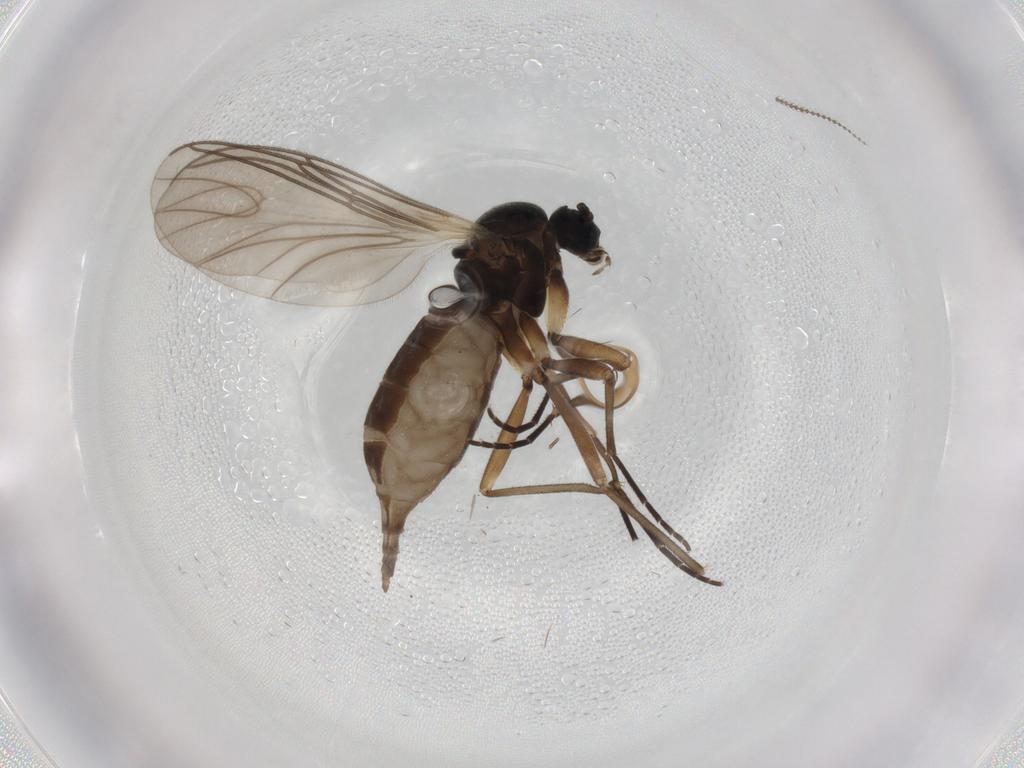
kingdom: Animalia
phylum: Arthropoda
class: Insecta
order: Diptera
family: Sciaridae
